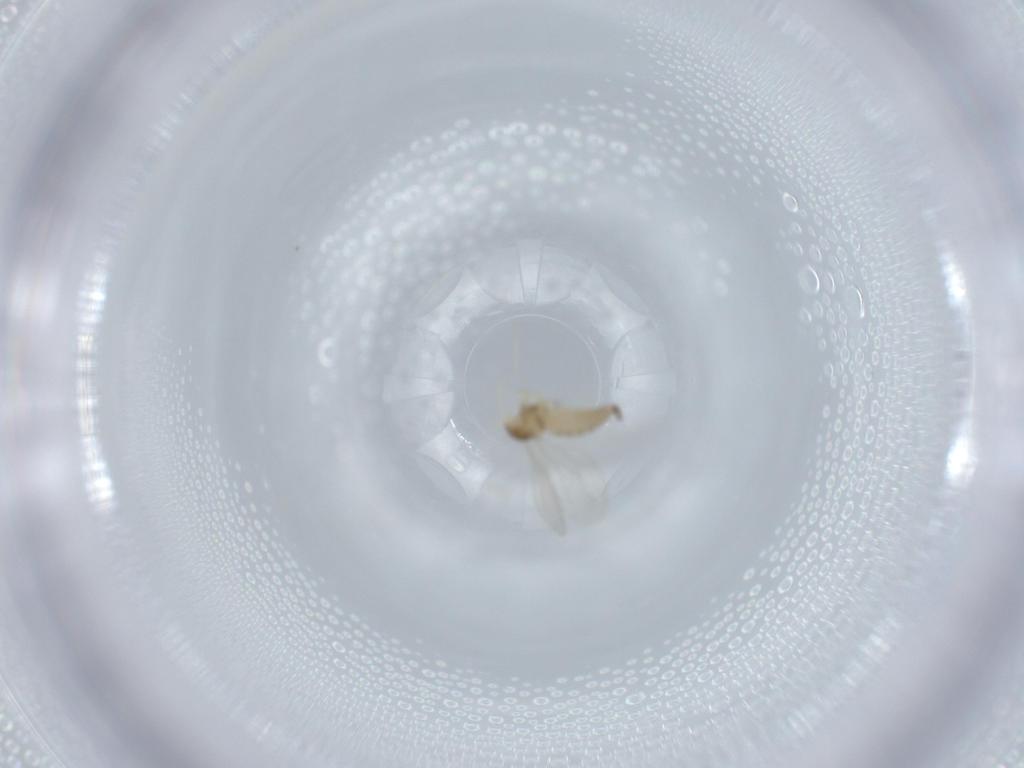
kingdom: Animalia
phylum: Arthropoda
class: Insecta
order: Diptera
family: Cecidomyiidae
